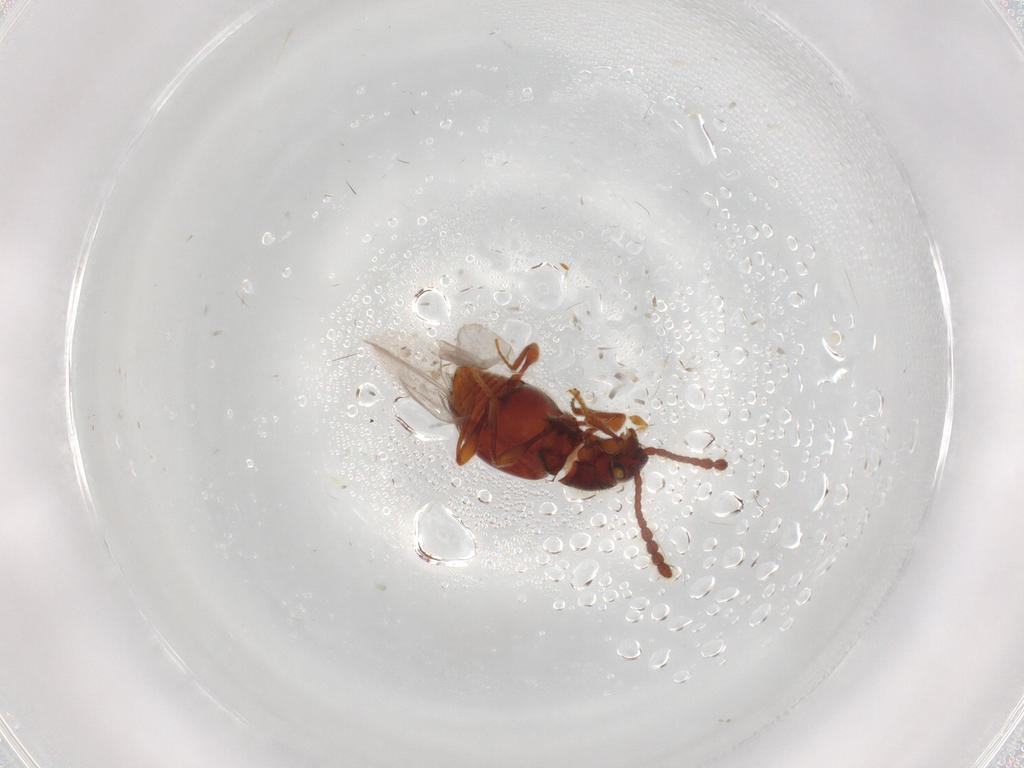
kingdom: Animalia
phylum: Arthropoda
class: Insecta
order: Coleoptera
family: Staphylinidae
